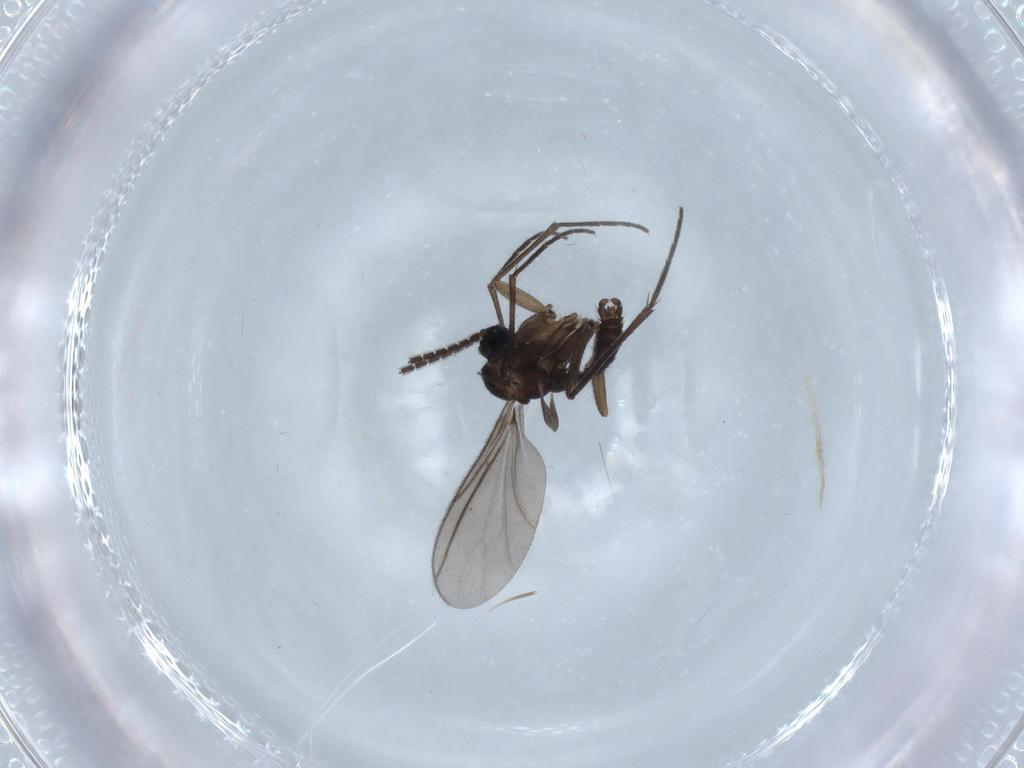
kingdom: Animalia
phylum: Arthropoda
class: Insecta
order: Diptera
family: Sciaridae
